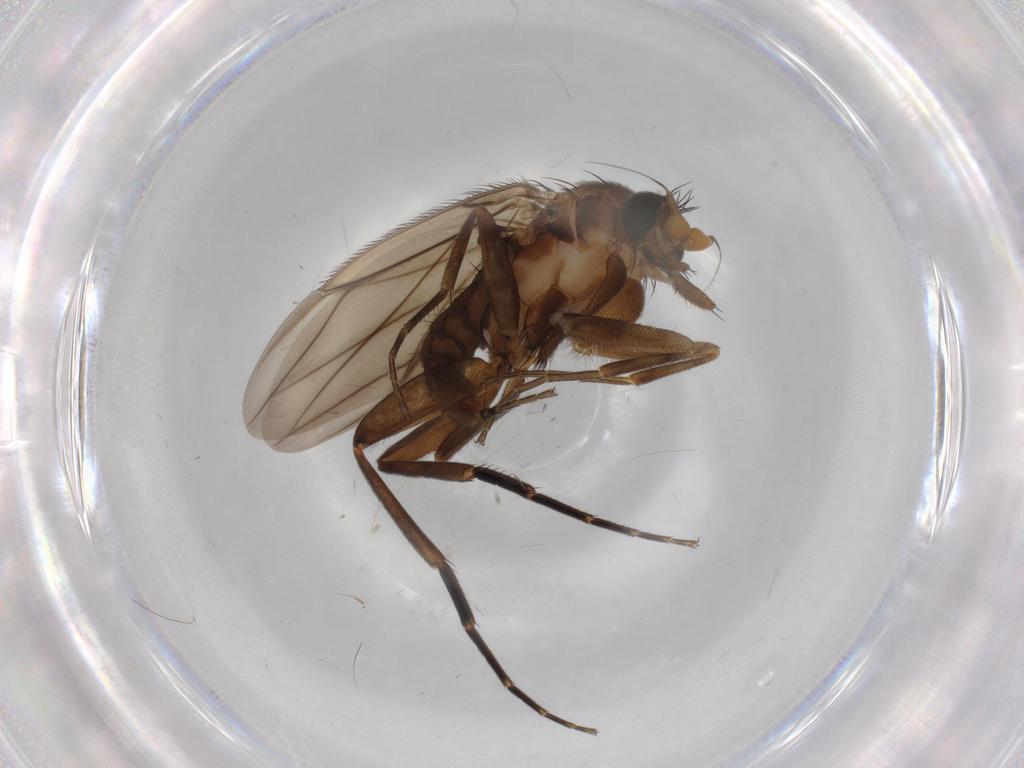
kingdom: Animalia
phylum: Arthropoda
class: Insecta
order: Diptera
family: Phoridae
